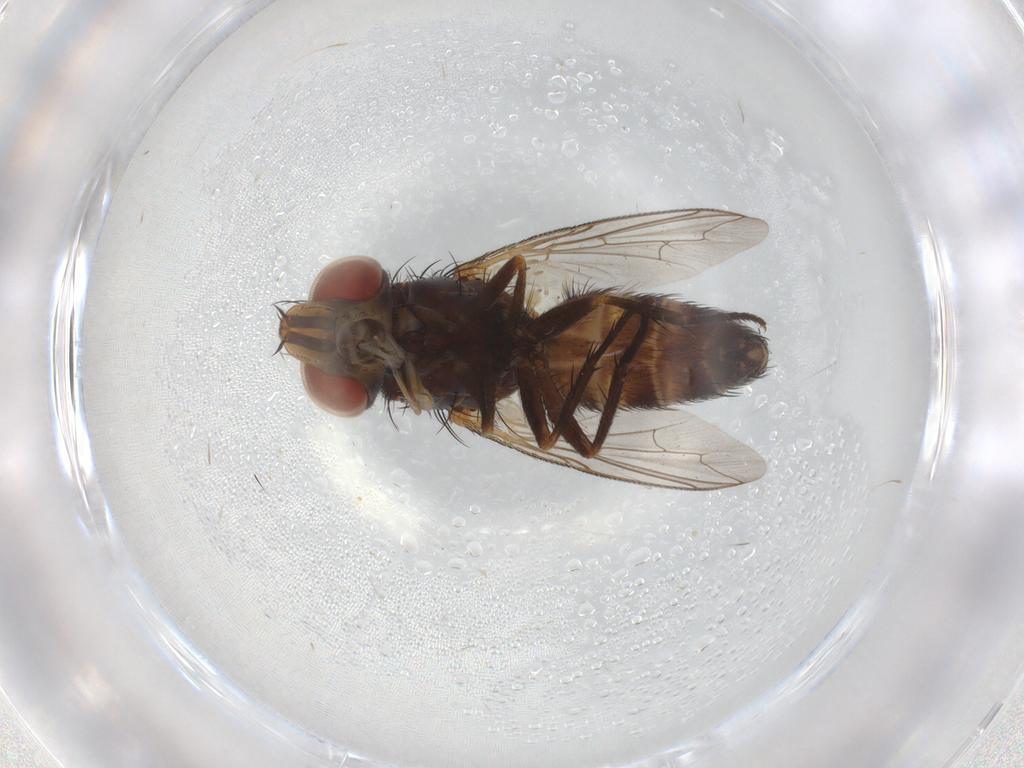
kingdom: Animalia
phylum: Arthropoda
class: Insecta
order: Diptera
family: Sarcophagidae
